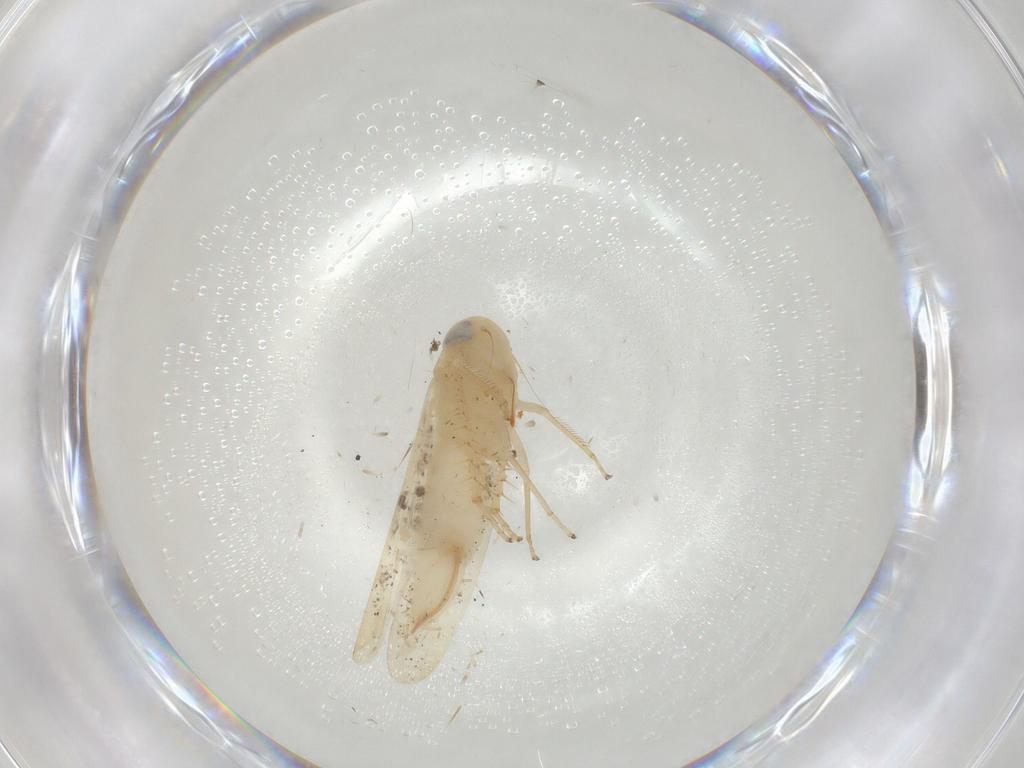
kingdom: Animalia
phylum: Arthropoda
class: Insecta
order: Hemiptera
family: Cicadellidae
